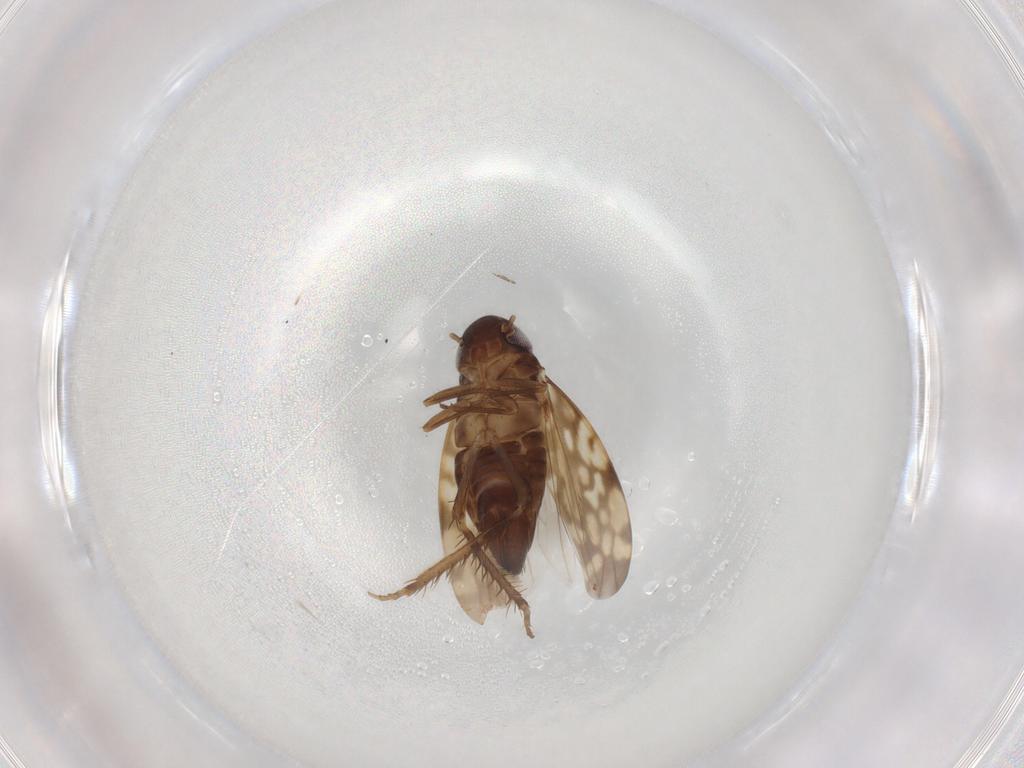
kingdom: Animalia
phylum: Arthropoda
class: Insecta
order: Hemiptera
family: Cicadellidae
